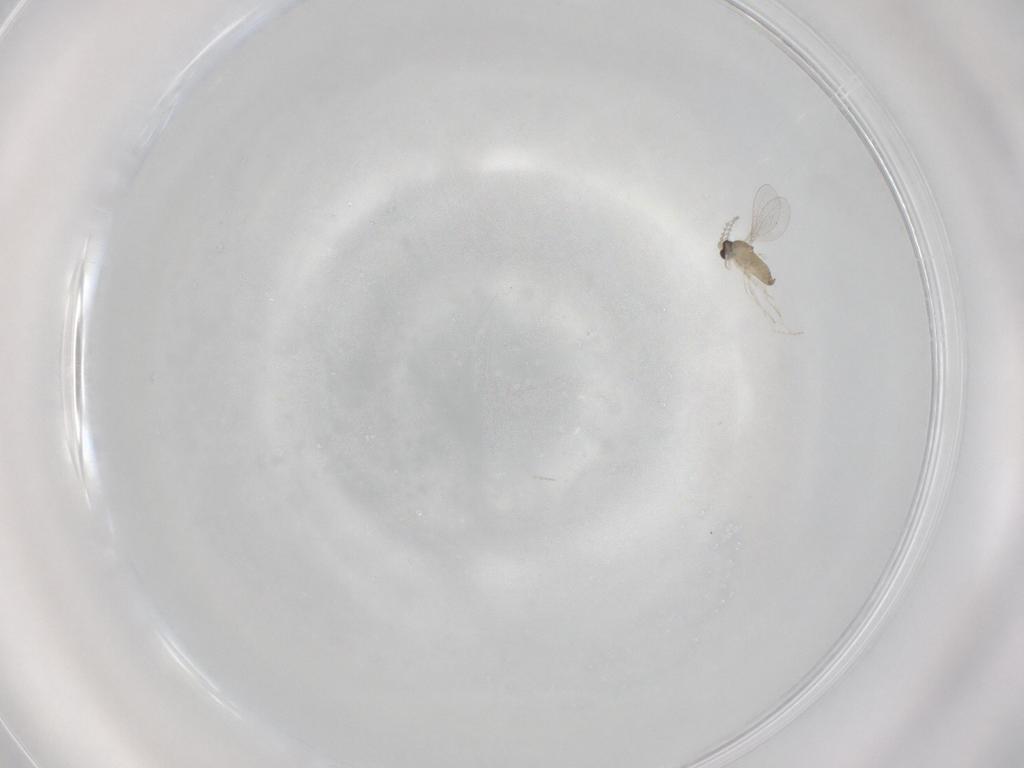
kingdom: Animalia
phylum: Arthropoda
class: Insecta
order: Diptera
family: Cecidomyiidae
